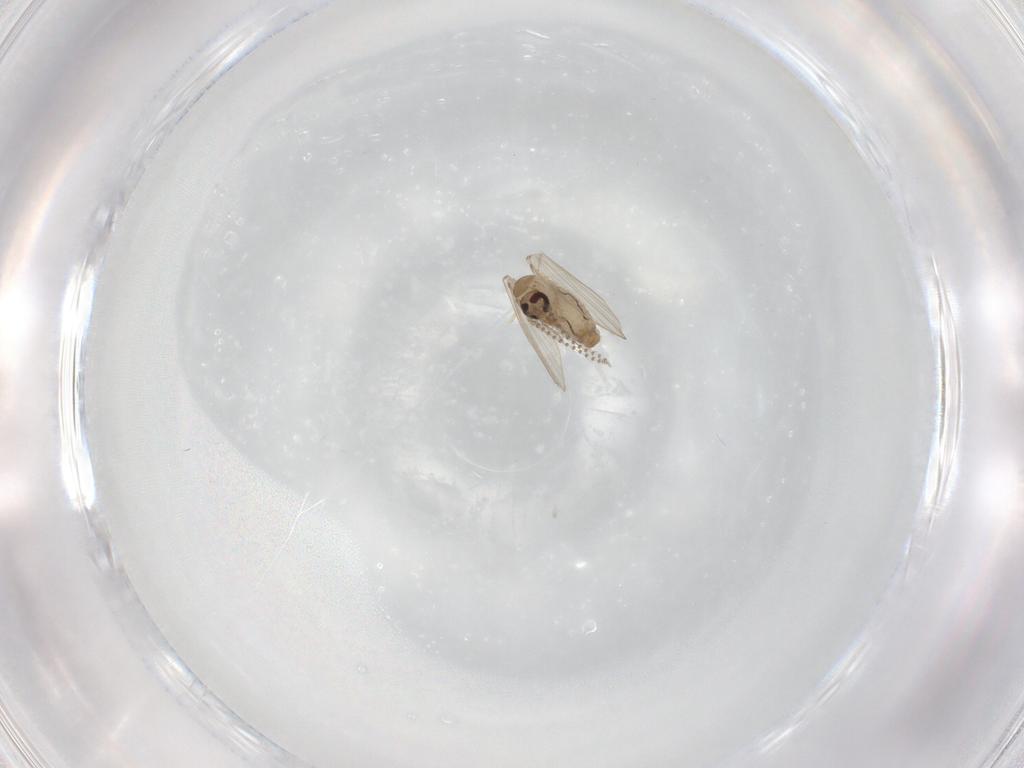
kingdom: Animalia
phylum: Arthropoda
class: Insecta
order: Diptera
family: Psychodidae
